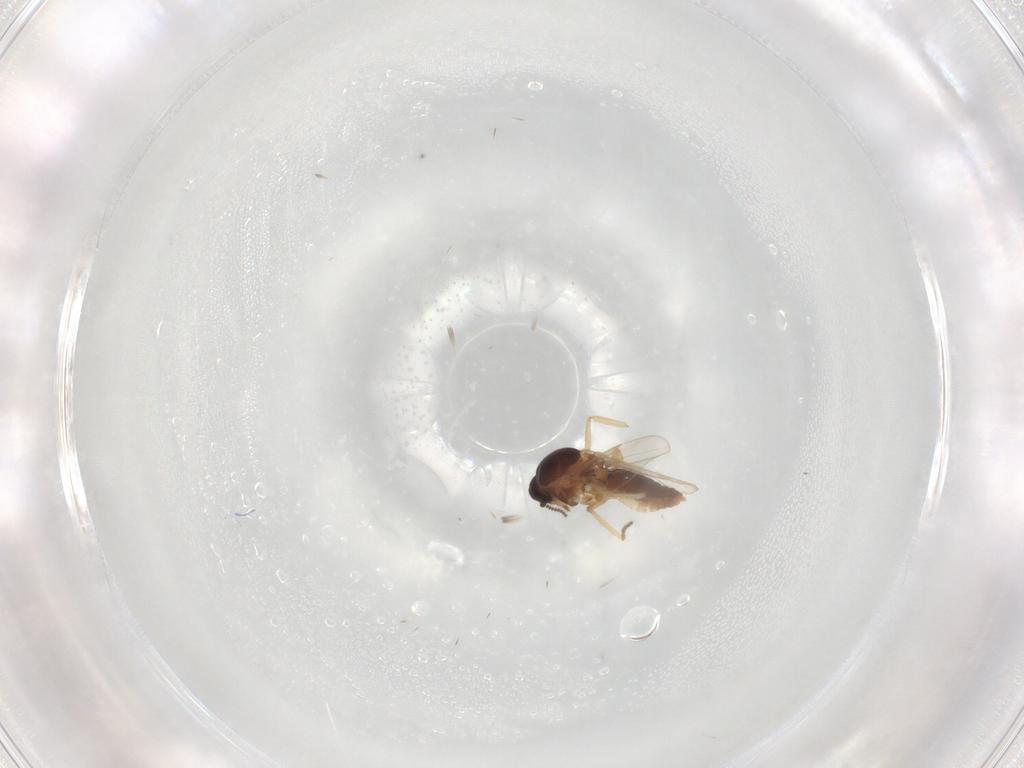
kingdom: Animalia
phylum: Arthropoda
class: Insecta
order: Diptera
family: Ceratopogonidae
